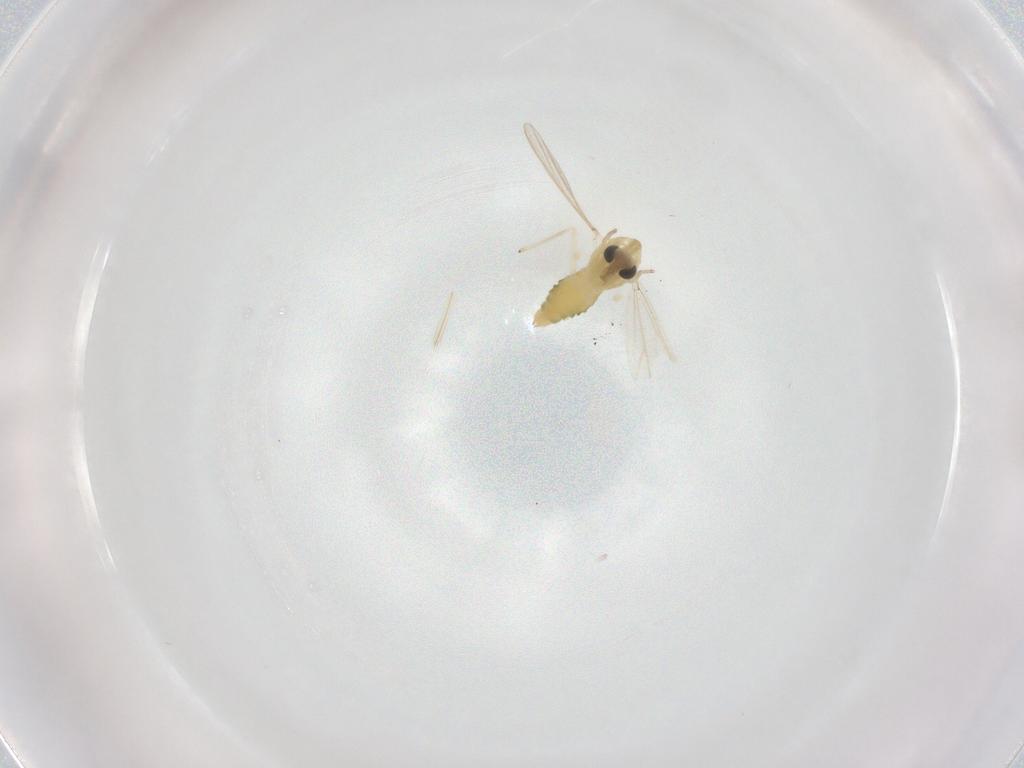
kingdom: Animalia
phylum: Arthropoda
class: Insecta
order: Diptera
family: Chironomidae
